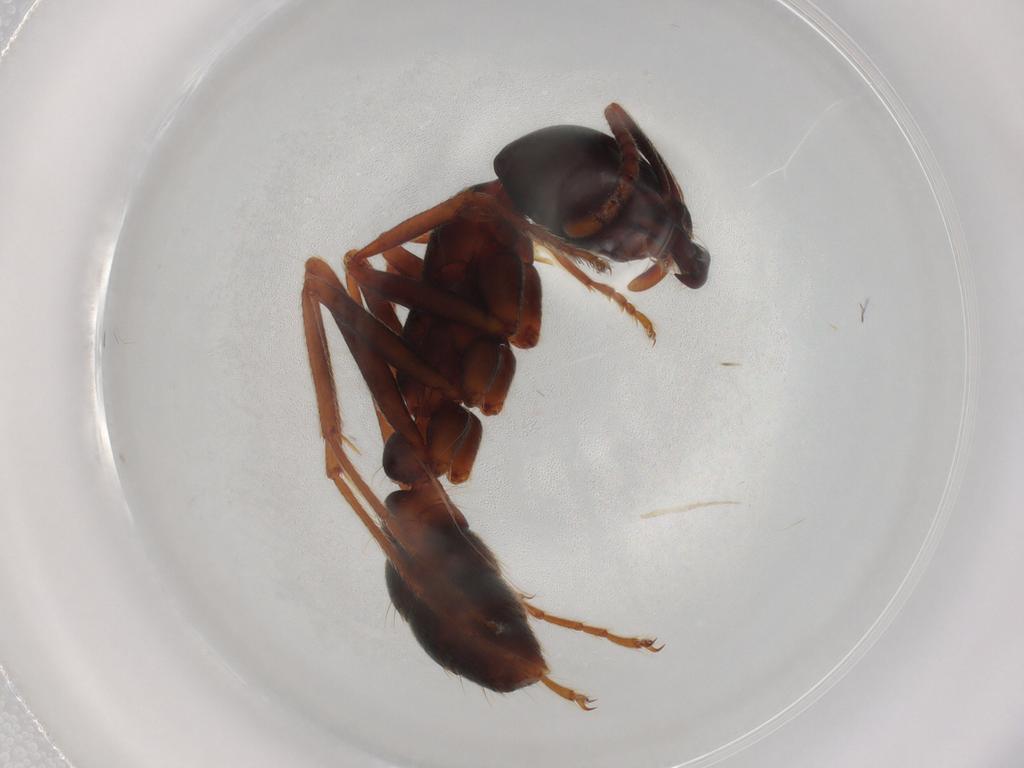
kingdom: Animalia
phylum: Arthropoda
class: Insecta
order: Hymenoptera
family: Formicidae
